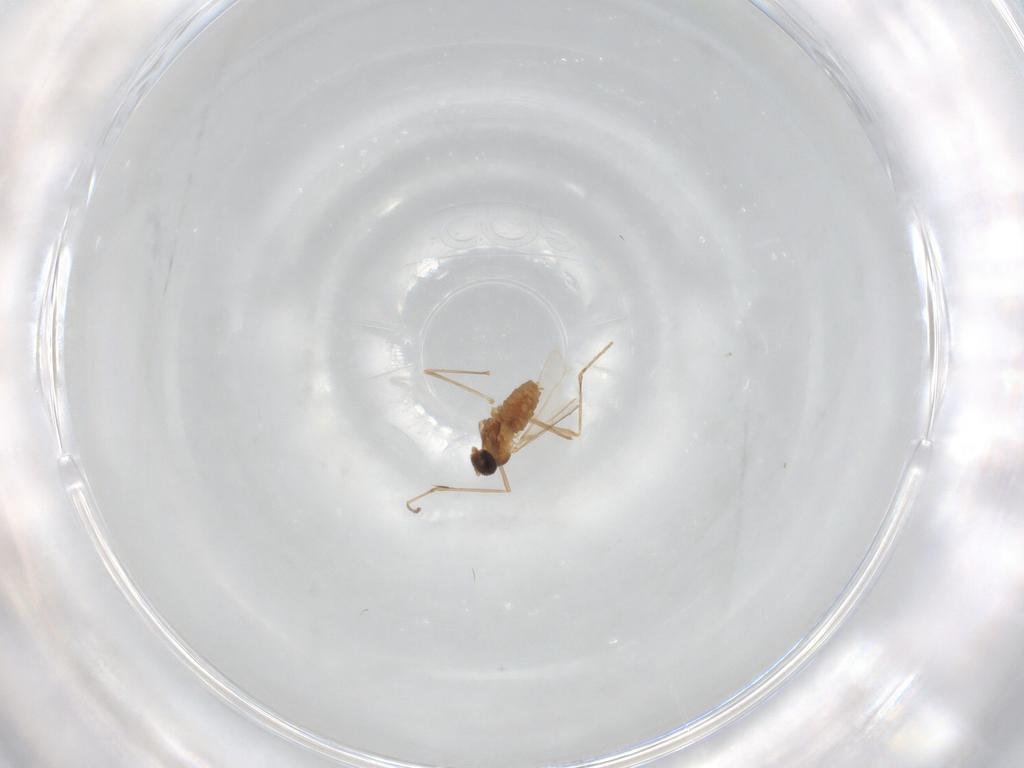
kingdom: Animalia
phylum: Arthropoda
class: Insecta
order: Diptera
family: Cecidomyiidae
